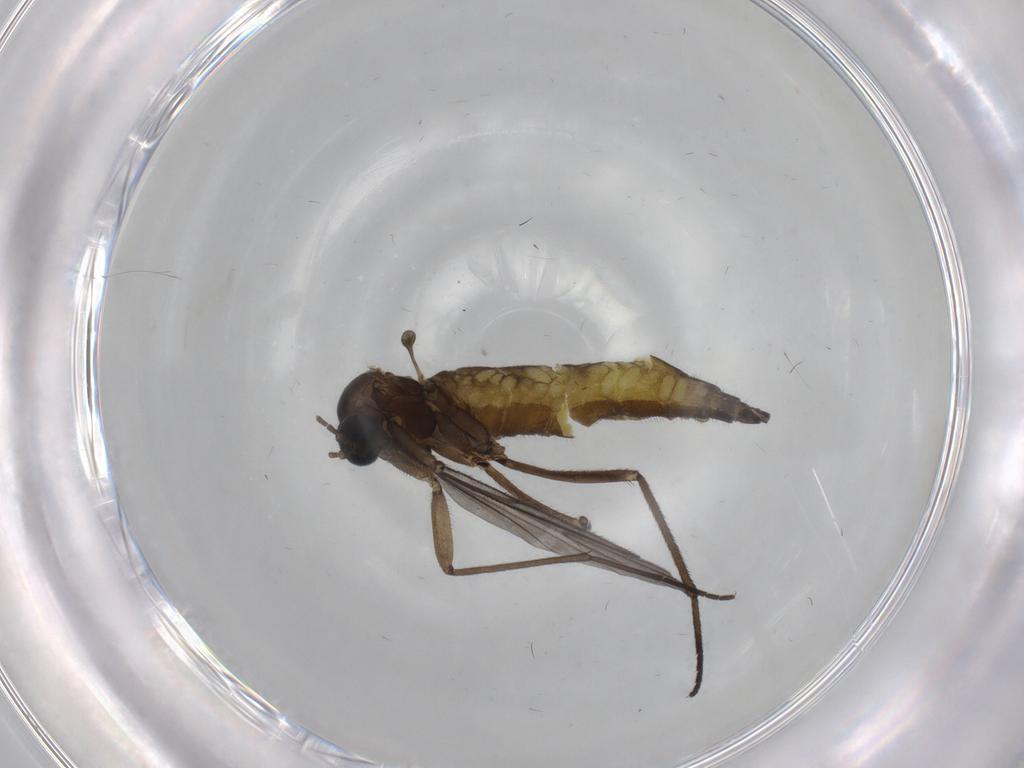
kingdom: Animalia
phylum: Arthropoda
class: Insecta
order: Diptera
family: Sciaridae
